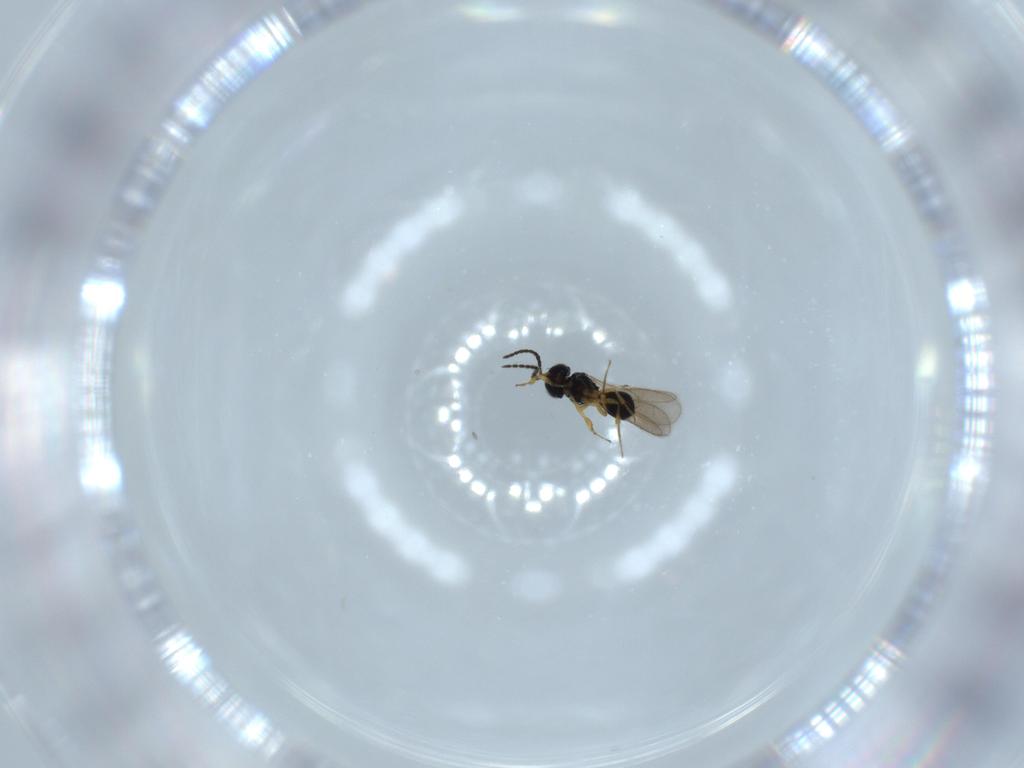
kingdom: Animalia
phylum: Arthropoda
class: Insecta
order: Hymenoptera
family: Scelionidae
